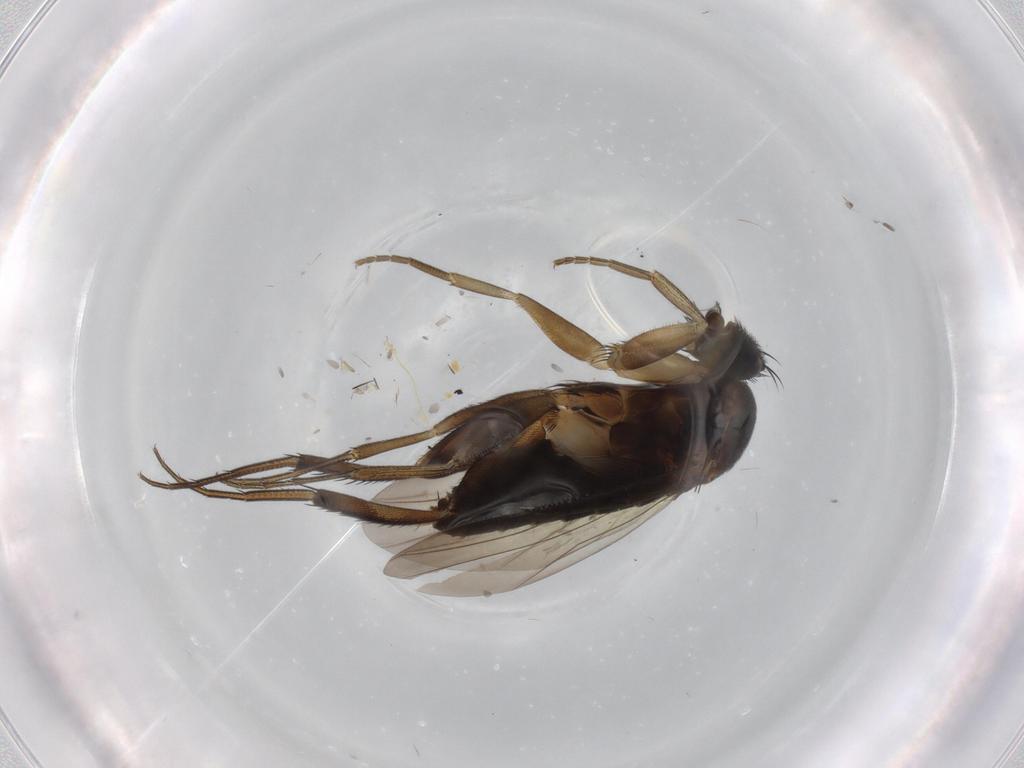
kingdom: Animalia
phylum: Arthropoda
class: Insecta
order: Diptera
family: Phoridae
